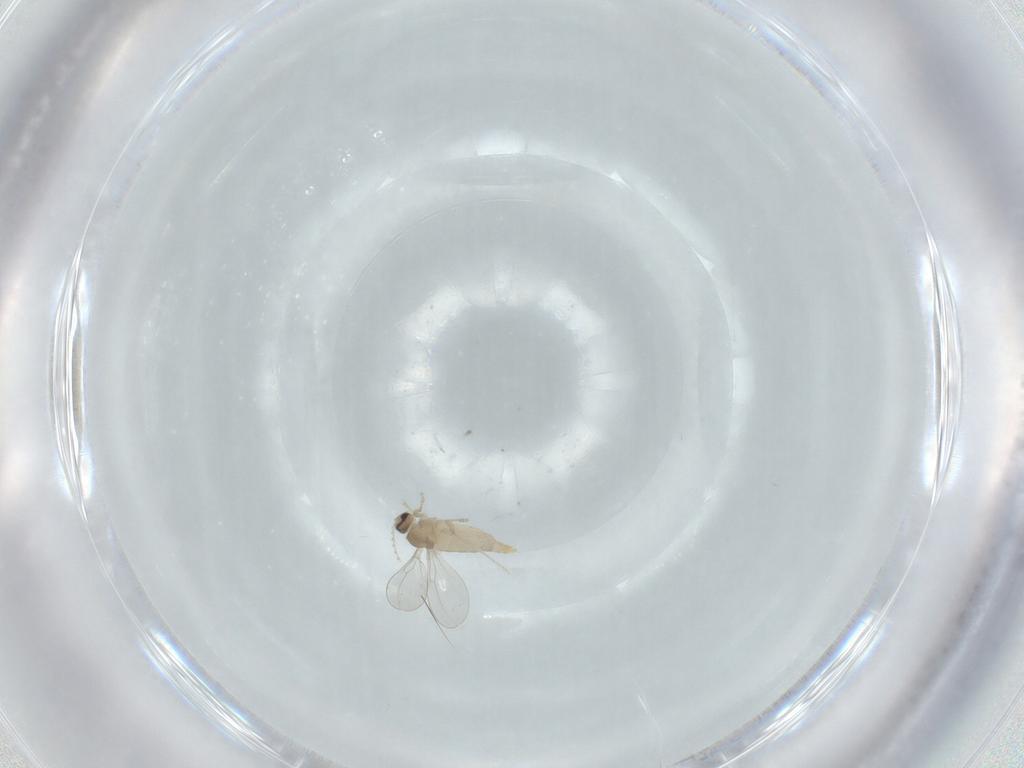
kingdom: Animalia
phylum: Arthropoda
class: Insecta
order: Diptera
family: Cecidomyiidae
